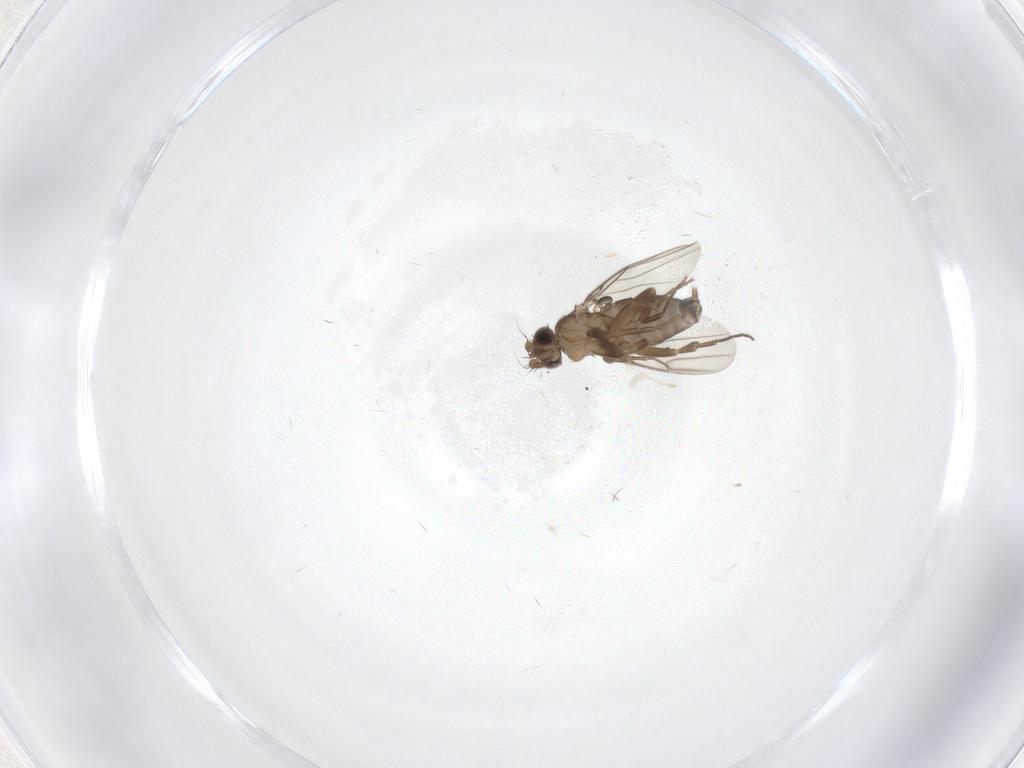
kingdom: Animalia
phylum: Arthropoda
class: Insecta
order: Diptera
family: Cecidomyiidae
